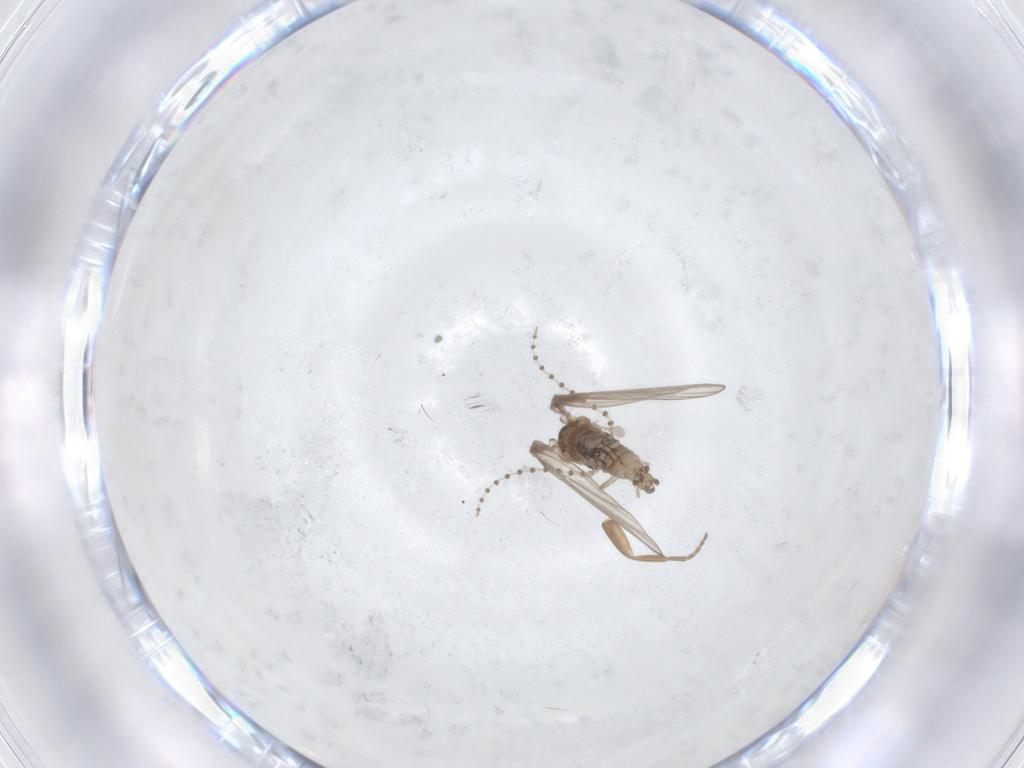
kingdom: Animalia
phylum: Arthropoda
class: Insecta
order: Diptera
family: Psychodidae
